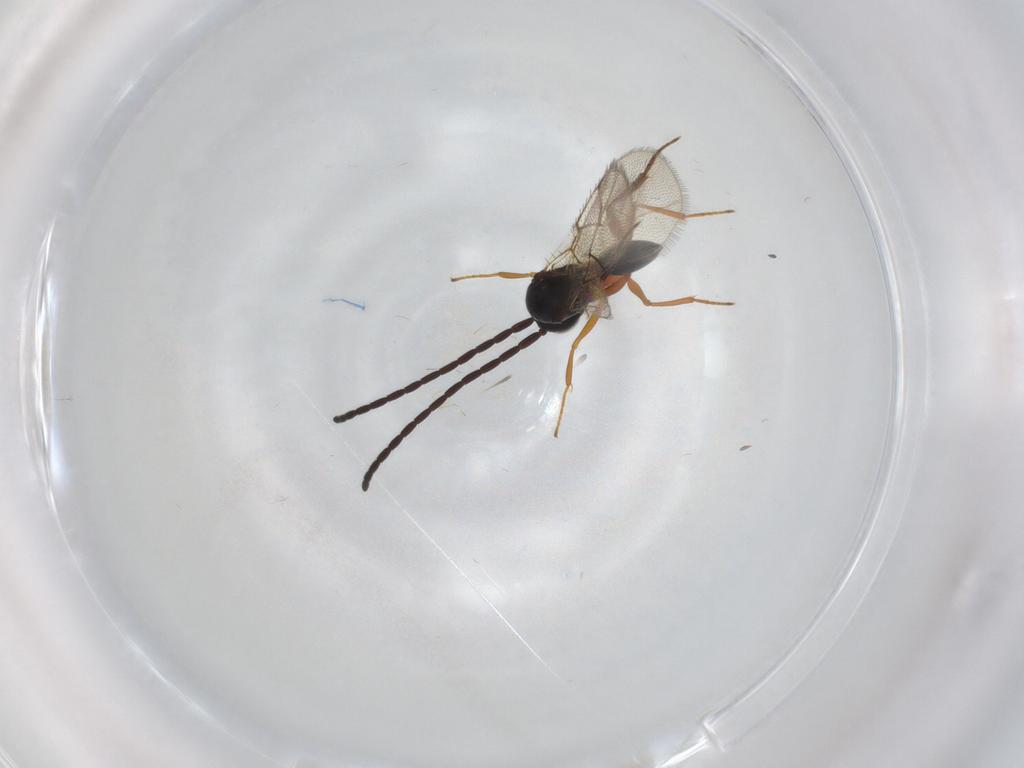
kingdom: Animalia
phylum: Arthropoda
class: Insecta
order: Hymenoptera
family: Figitidae
